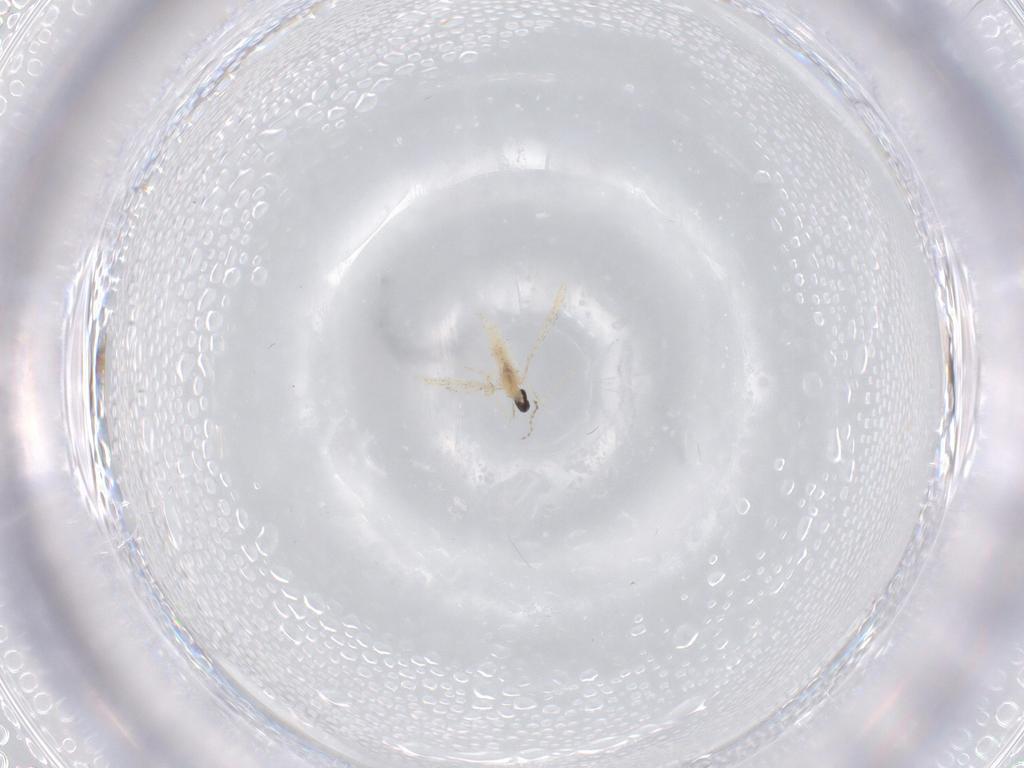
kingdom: Animalia
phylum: Arthropoda
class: Insecta
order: Diptera
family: Cecidomyiidae
